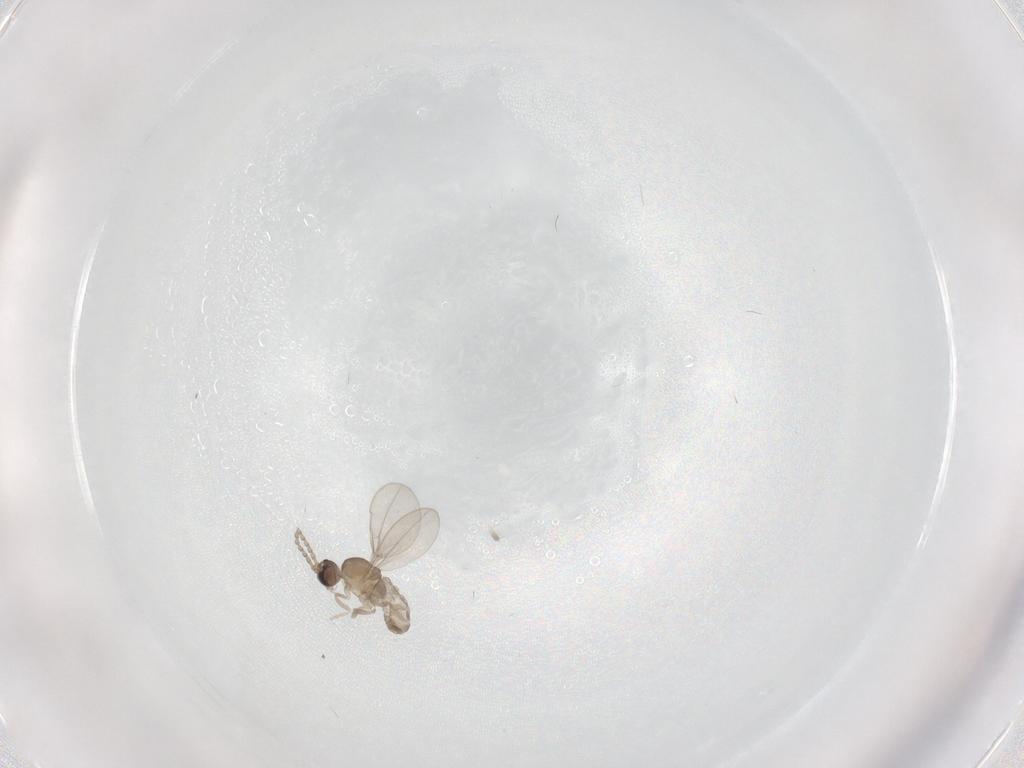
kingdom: Animalia
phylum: Arthropoda
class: Insecta
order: Diptera
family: Cecidomyiidae
